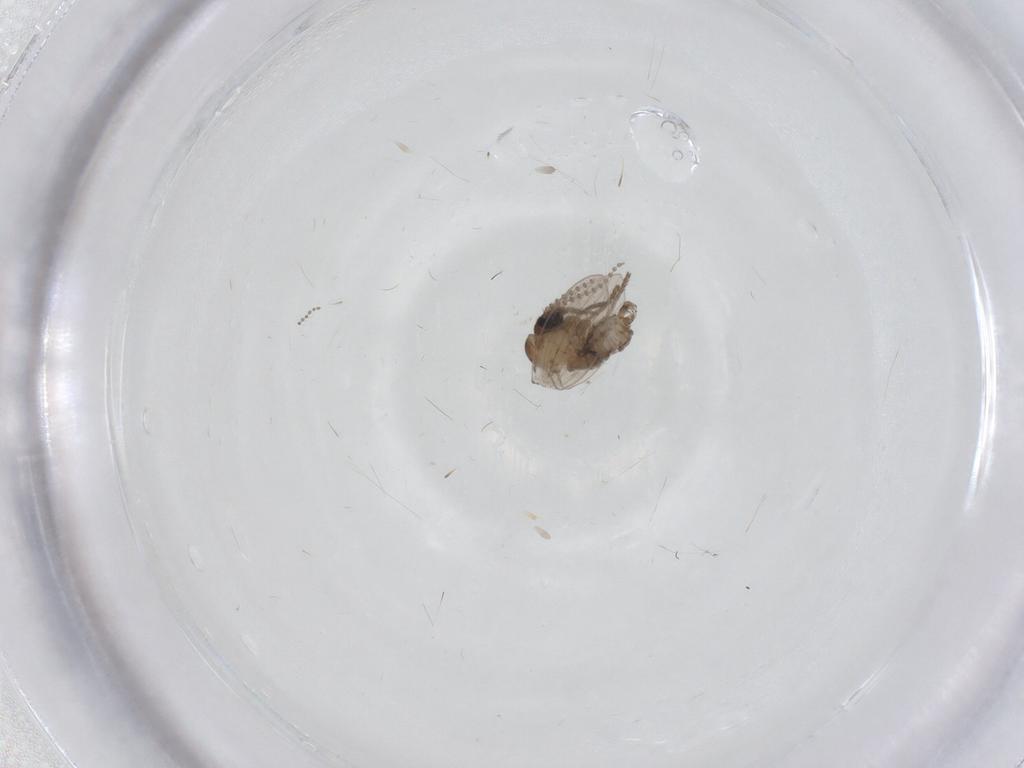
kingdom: Animalia
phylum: Arthropoda
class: Insecta
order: Diptera
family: Psychodidae
